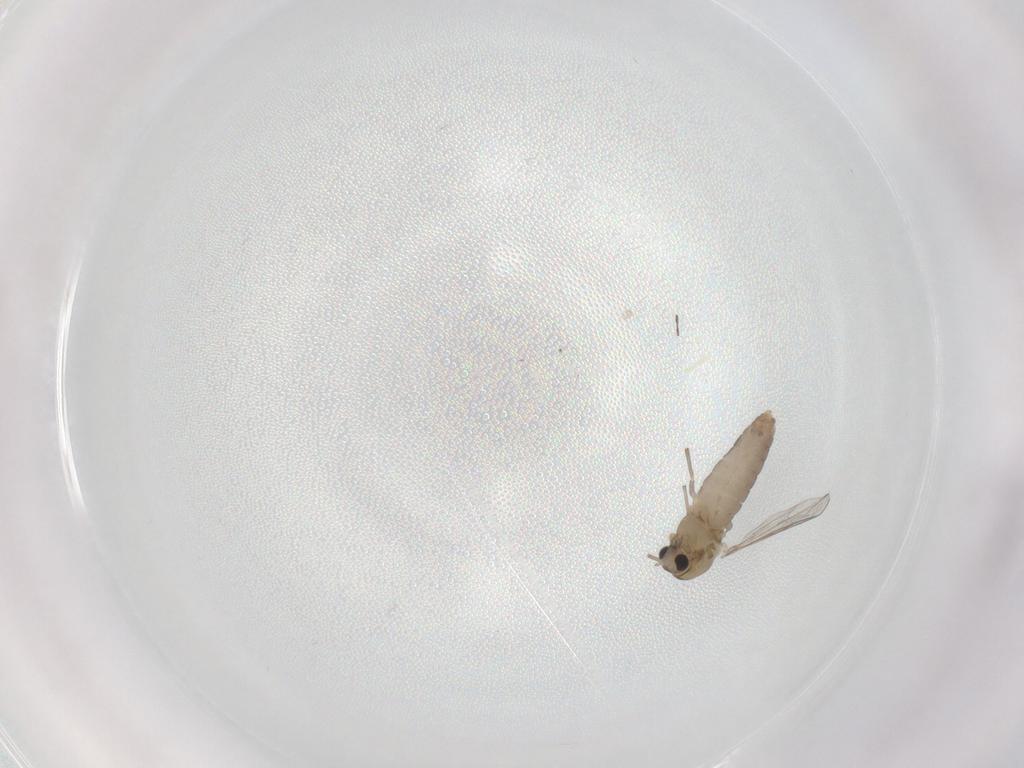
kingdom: Animalia
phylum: Arthropoda
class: Insecta
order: Diptera
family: Chironomidae
